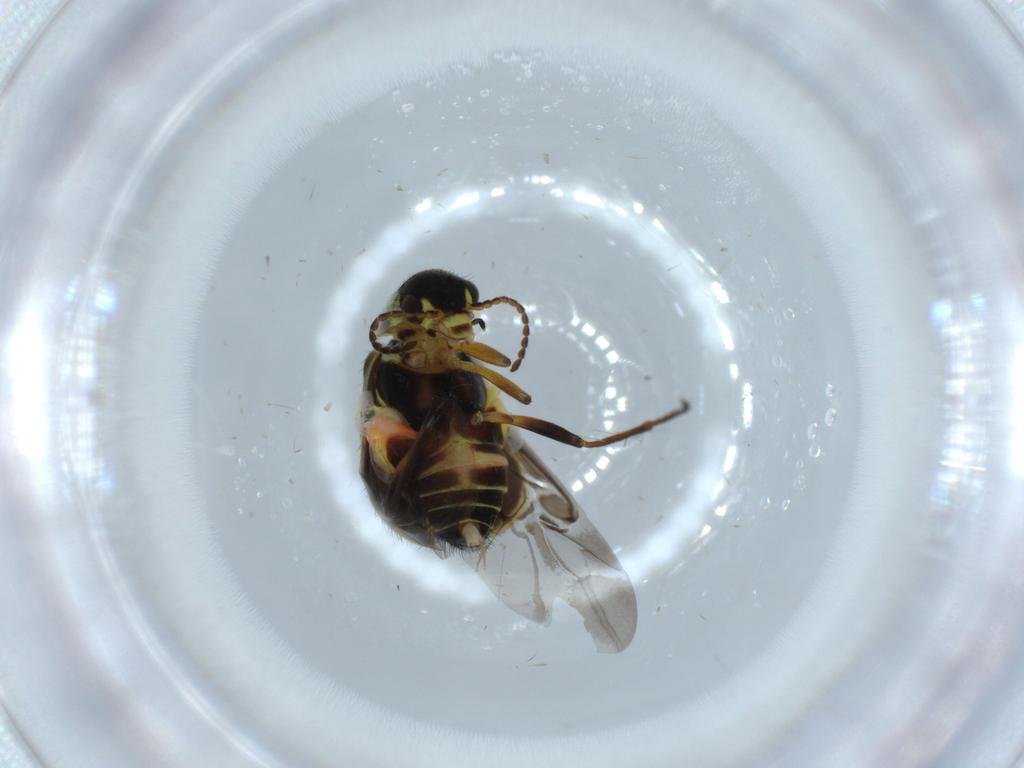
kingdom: Animalia
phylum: Arthropoda
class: Insecta
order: Coleoptera
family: Melyridae
